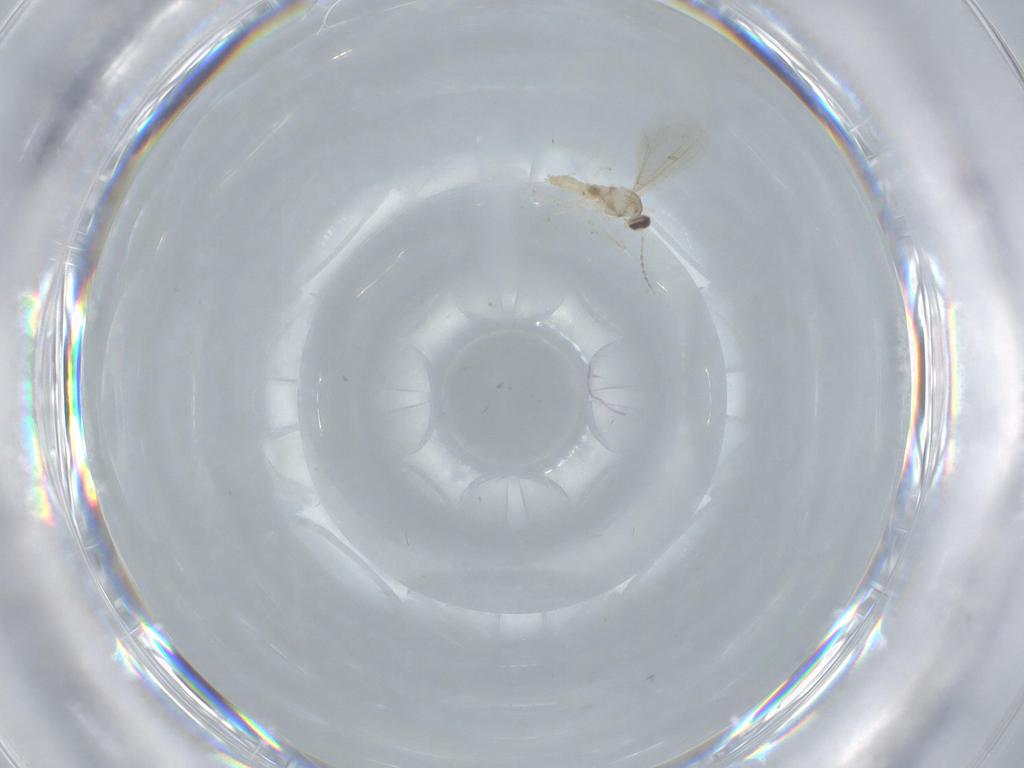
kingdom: Animalia
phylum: Arthropoda
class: Insecta
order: Diptera
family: Cecidomyiidae
